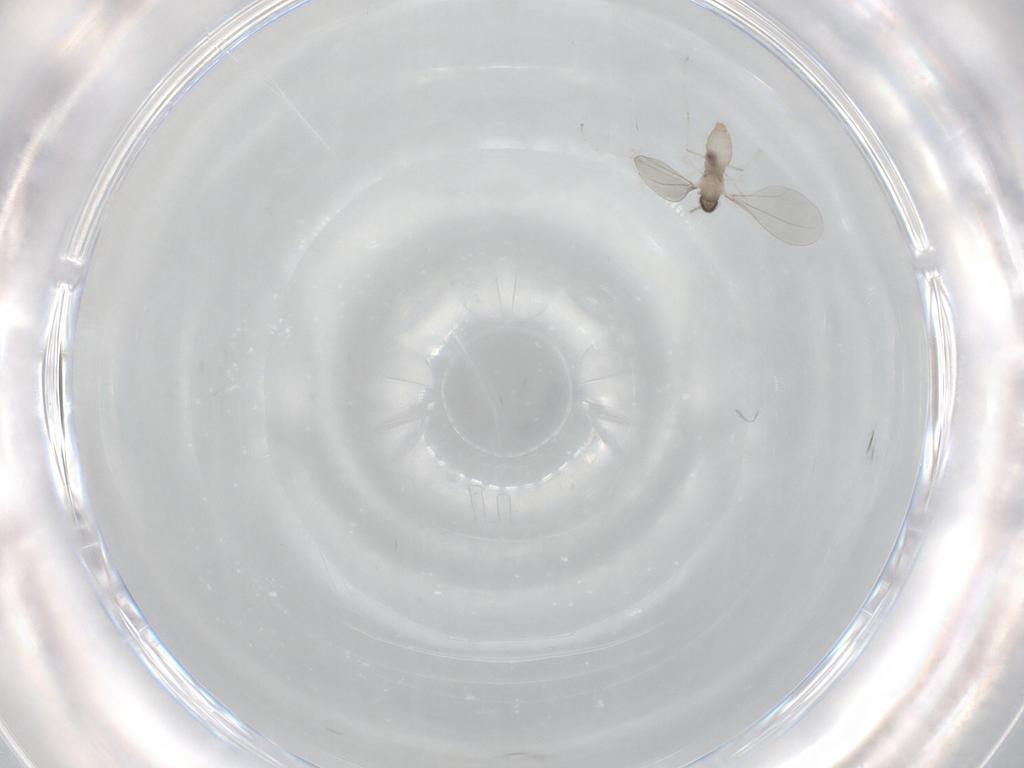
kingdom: Animalia
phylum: Arthropoda
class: Insecta
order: Diptera
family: Cecidomyiidae
